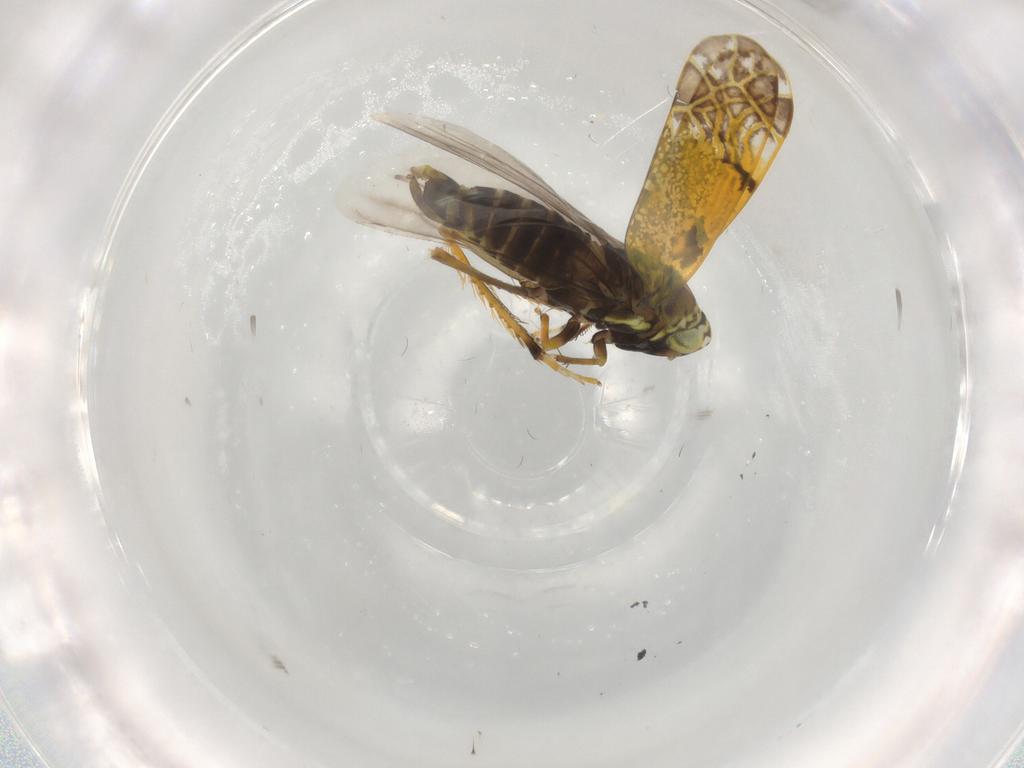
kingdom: Animalia
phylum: Arthropoda
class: Insecta
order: Hemiptera
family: Cicadellidae
